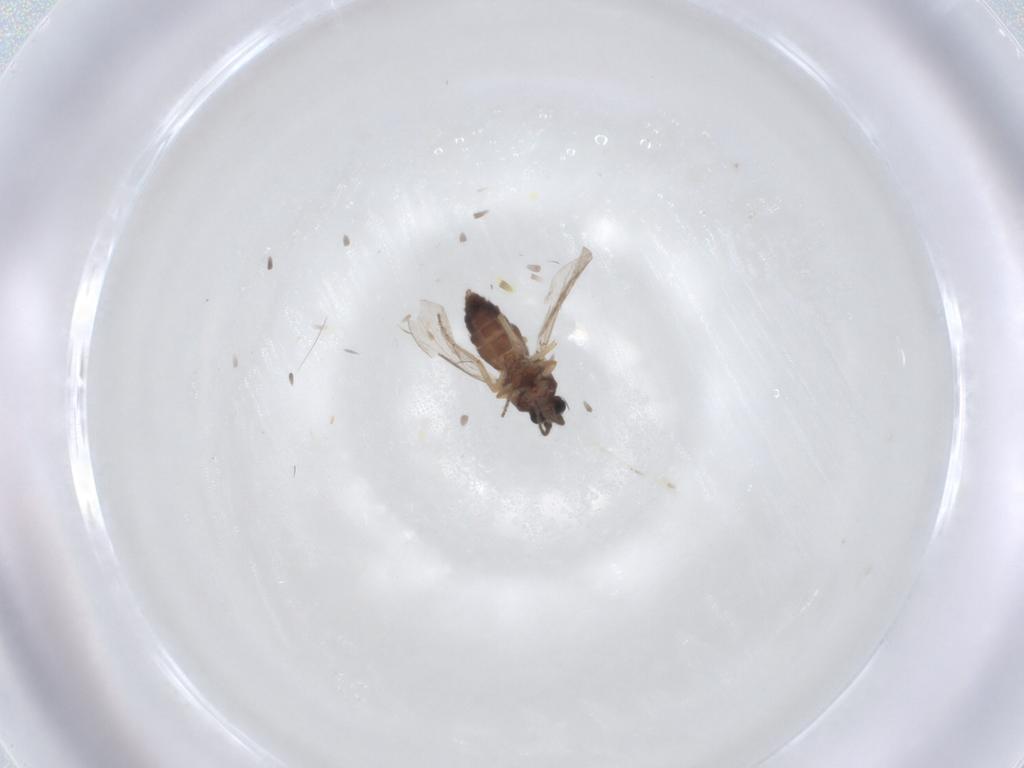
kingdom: Animalia
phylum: Arthropoda
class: Insecta
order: Diptera
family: Ceratopogonidae
